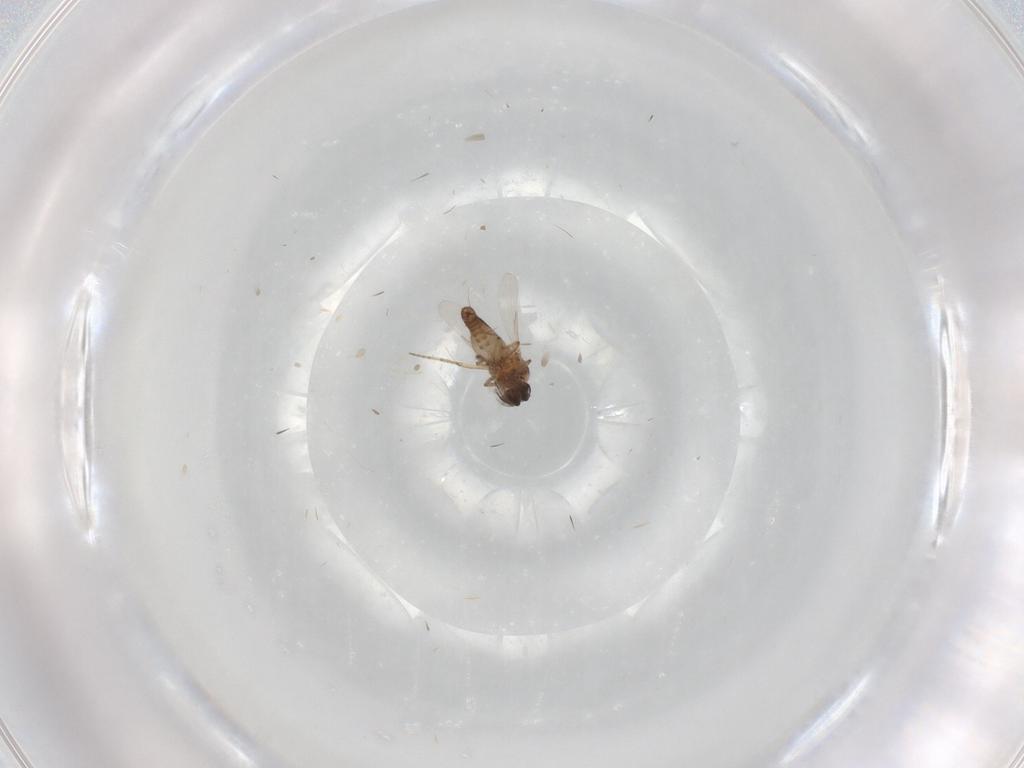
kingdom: Animalia
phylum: Arthropoda
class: Insecta
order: Diptera
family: Ceratopogonidae
